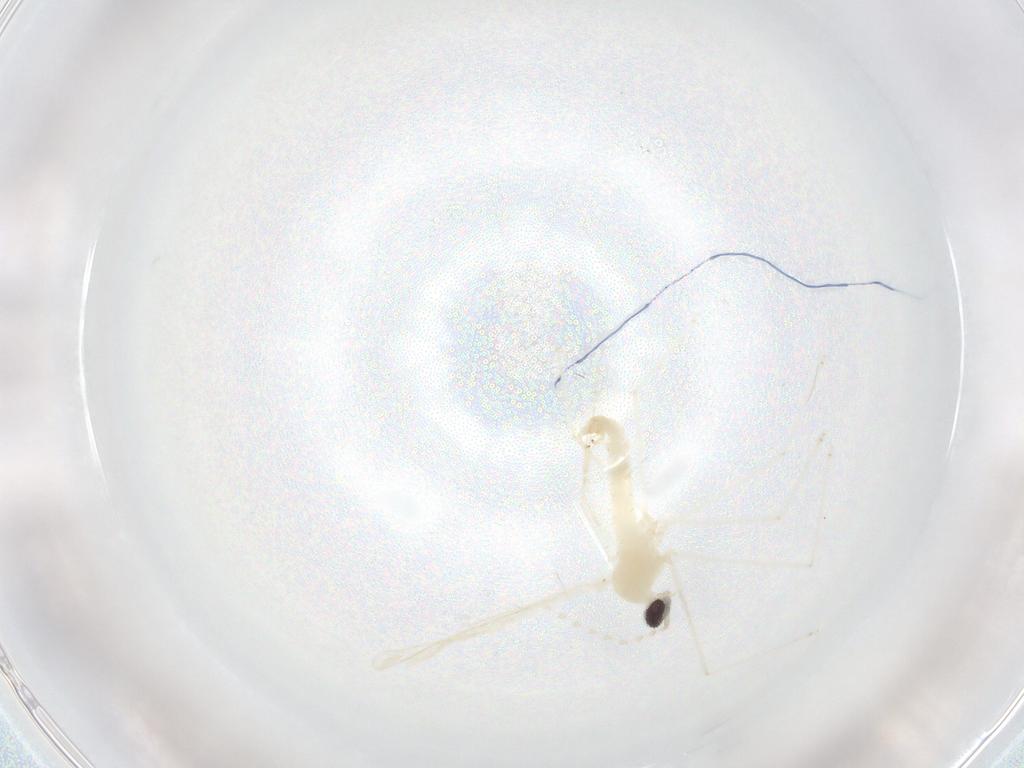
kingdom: Animalia
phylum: Arthropoda
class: Insecta
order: Diptera
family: Cecidomyiidae
